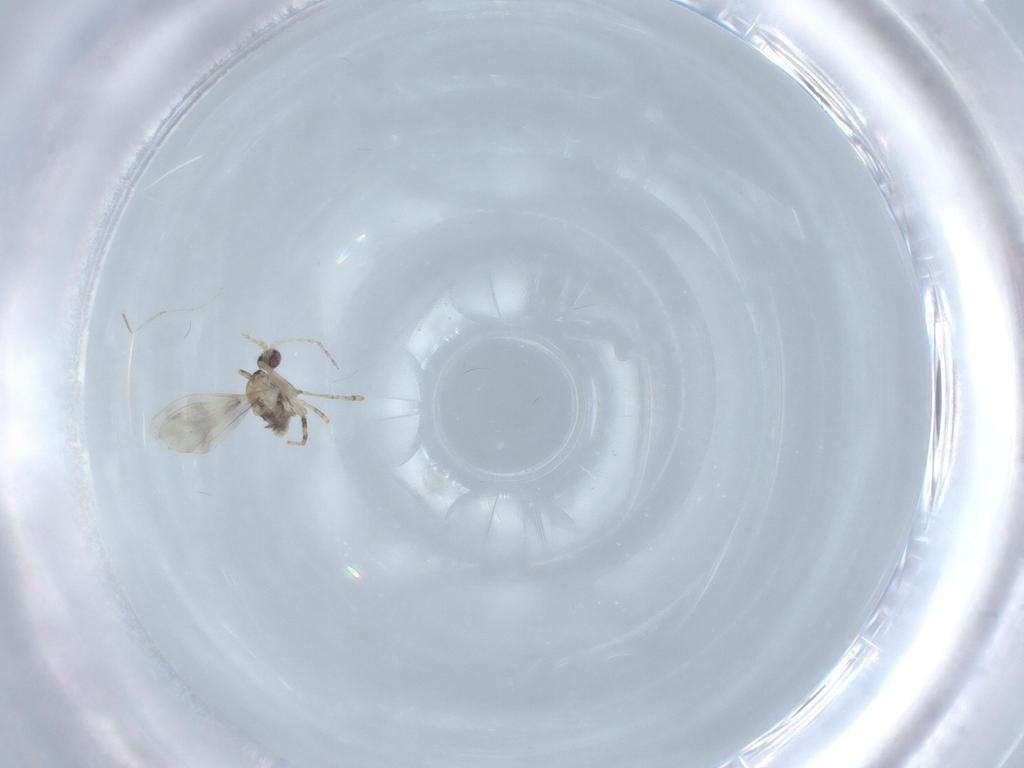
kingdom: Animalia
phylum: Arthropoda
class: Insecta
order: Diptera
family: Cecidomyiidae
